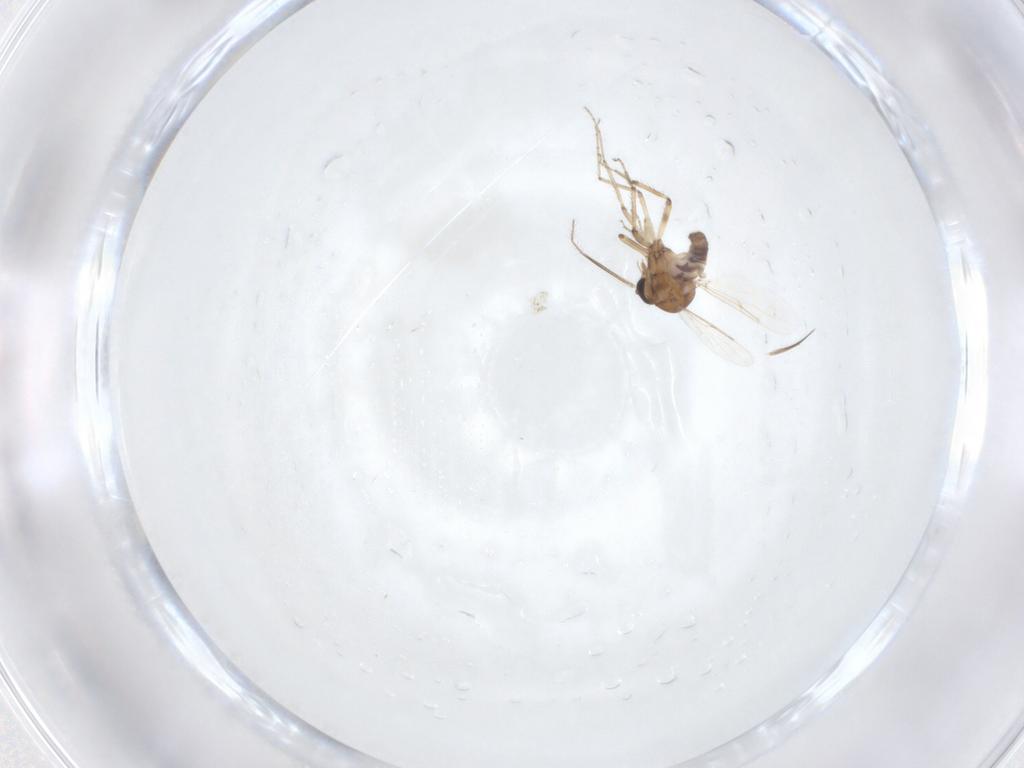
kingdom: Animalia
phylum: Arthropoda
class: Insecta
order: Diptera
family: Ceratopogonidae
